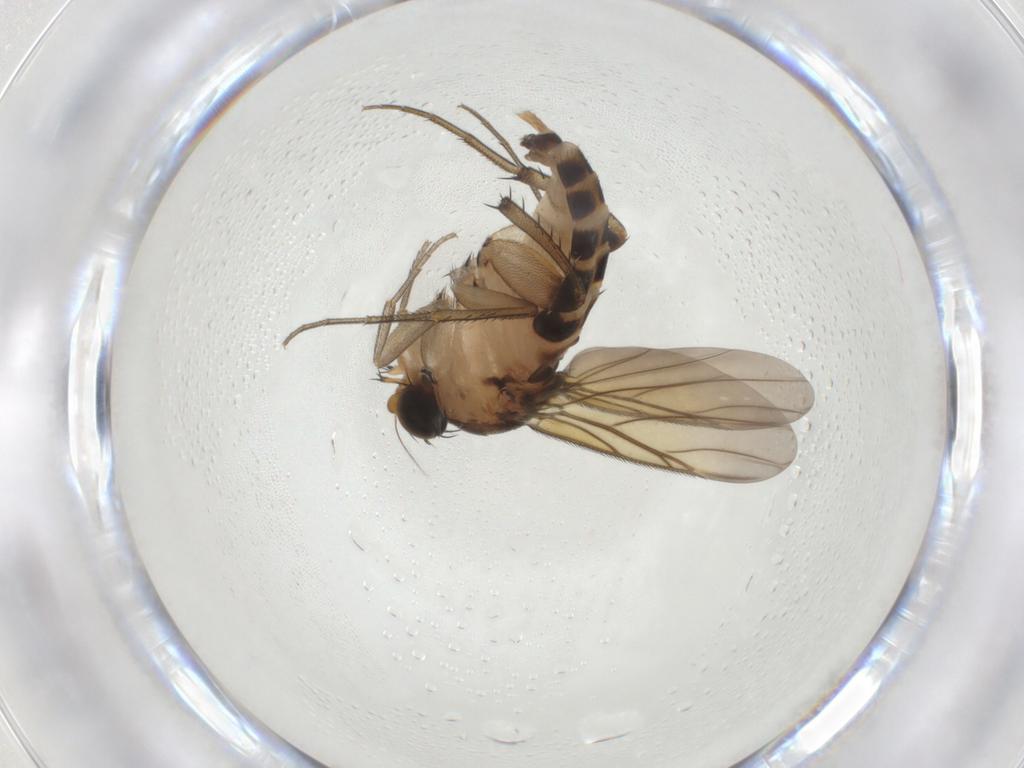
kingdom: Animalia
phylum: Arthropoda
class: Insecta
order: Diptera
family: Phoridae
